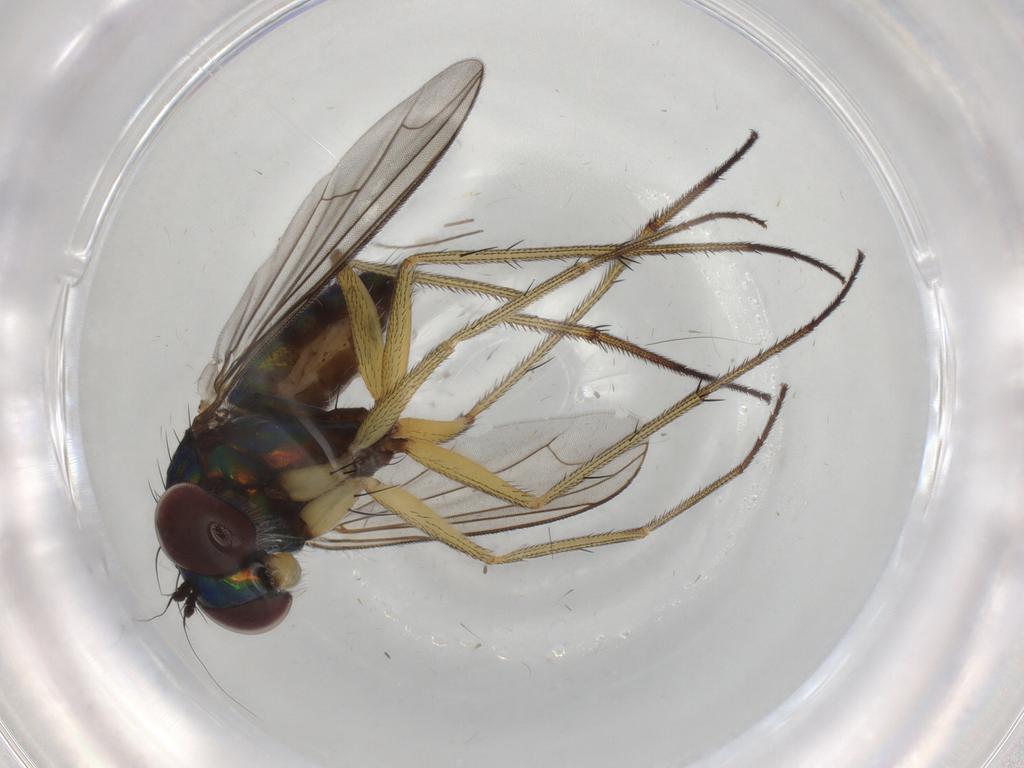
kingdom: Animalia
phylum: Arthropoda
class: Insecta
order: Diptera
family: Dolichopodidae
